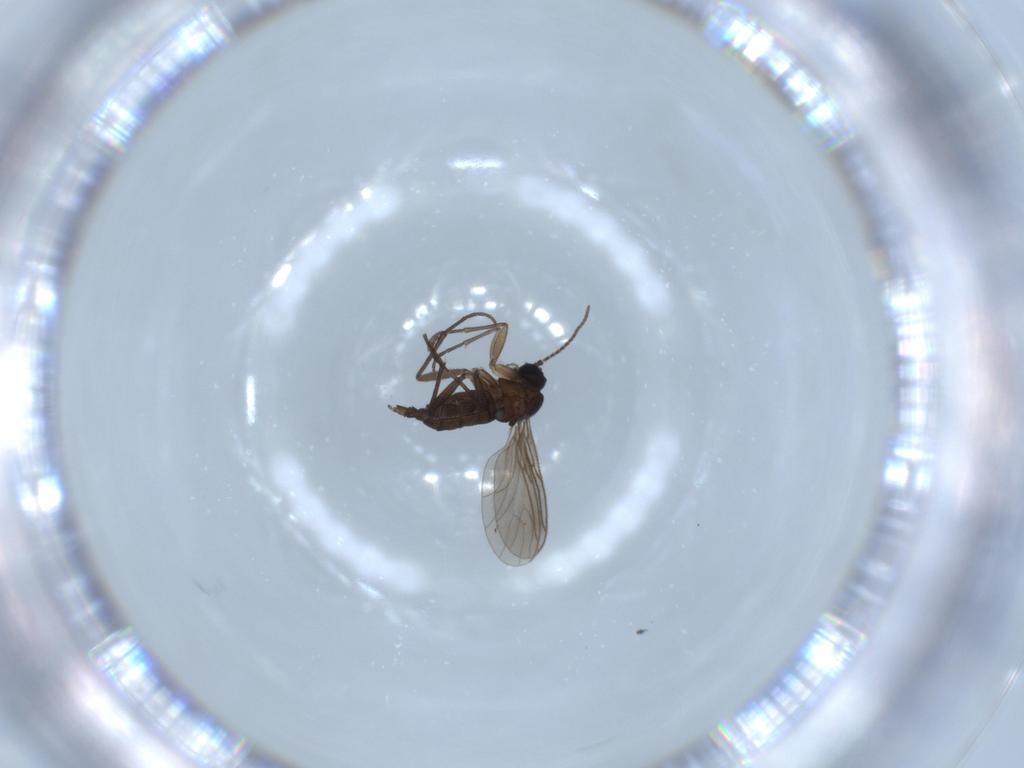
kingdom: Animalia
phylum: Arthropoda
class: Insecta
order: Diptera
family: Sciaridae
